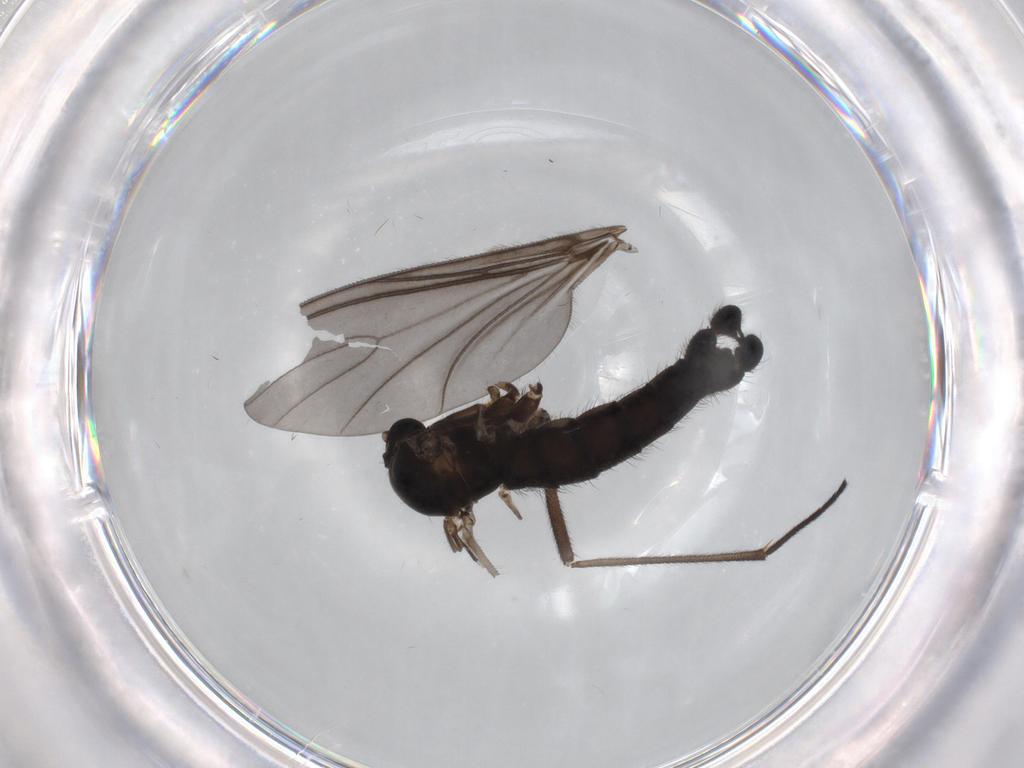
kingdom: Animalia
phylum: Arthropoda
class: Insecta
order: Diptera
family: Sciaridae
